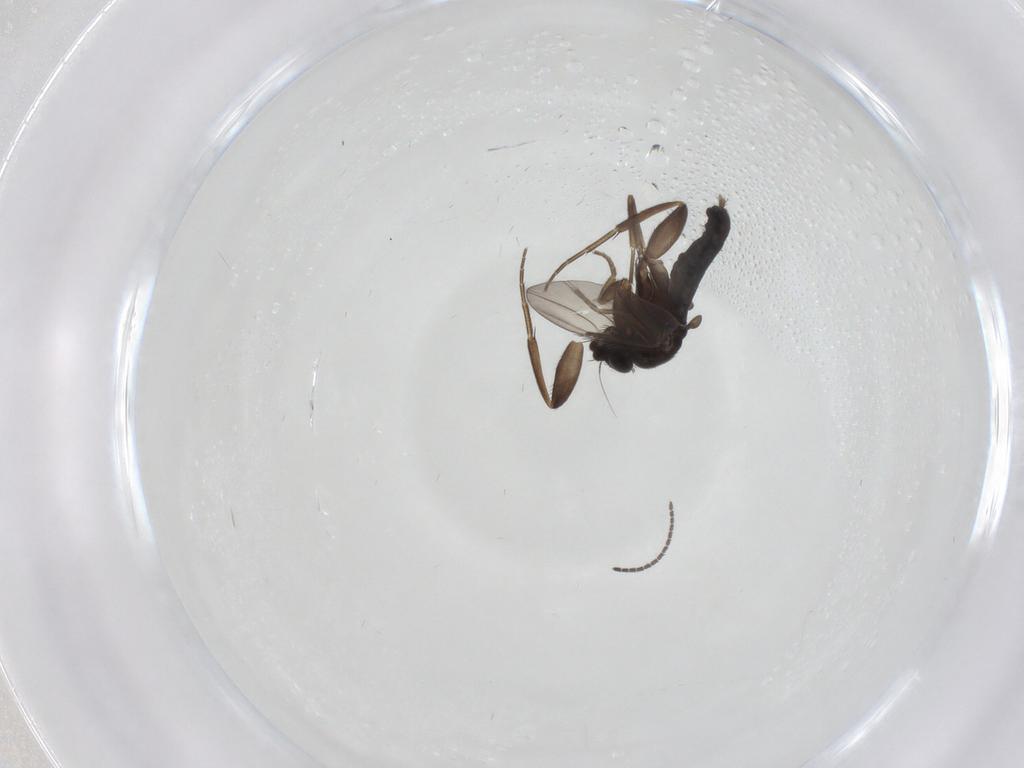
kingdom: Animalia
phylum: Arthropoda
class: Insecta
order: Diptera
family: Phoridae
